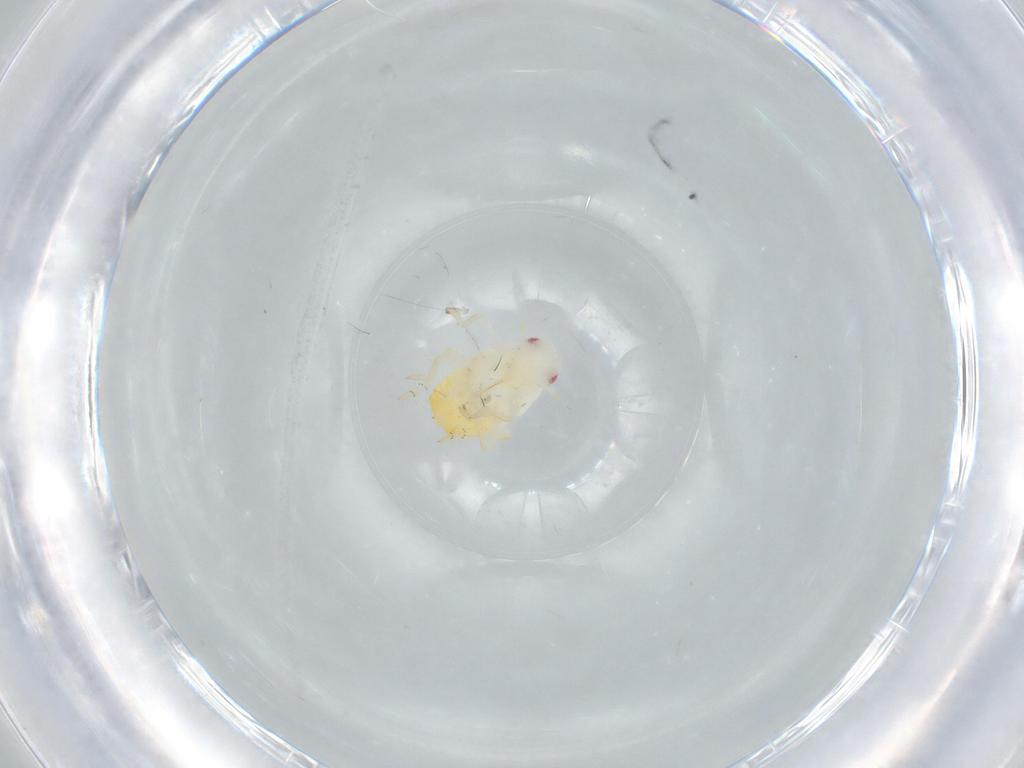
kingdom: Animalia
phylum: Arthropoda
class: Insecta
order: Hemiptera
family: Flatidae
